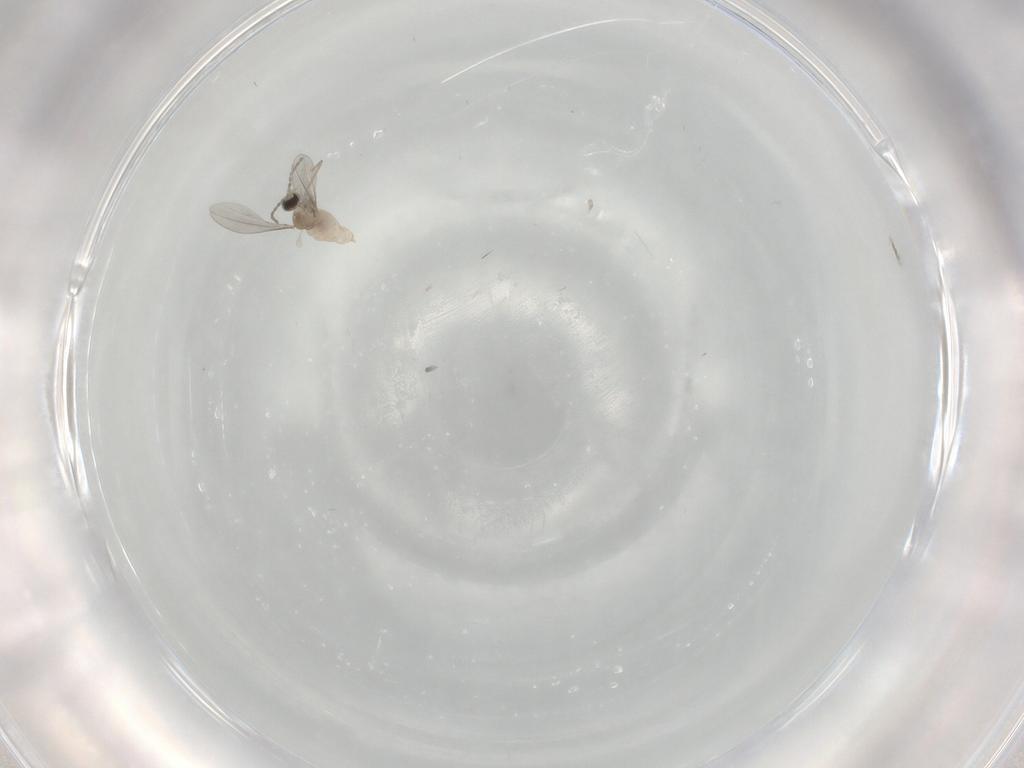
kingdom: Animalia
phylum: Arthropoda
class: Insecta
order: Diptera
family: Cecidomyiidae
